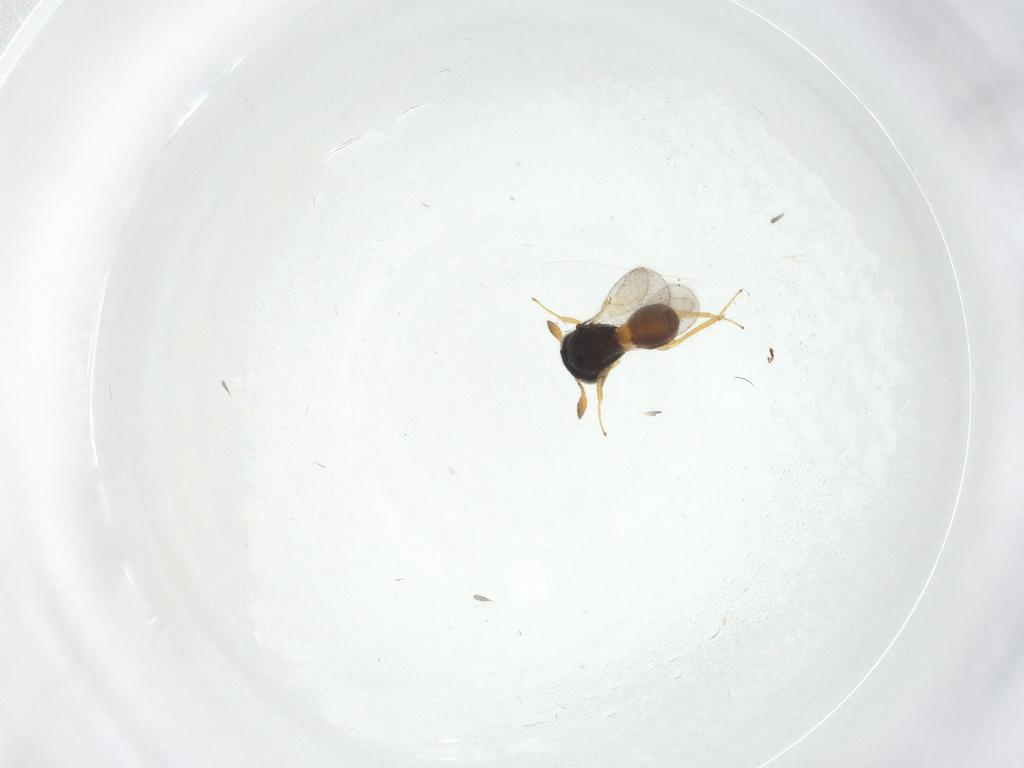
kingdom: Animalia
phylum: Arthropoda
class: Insecta
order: Hymenoptera
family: Scelionidae
